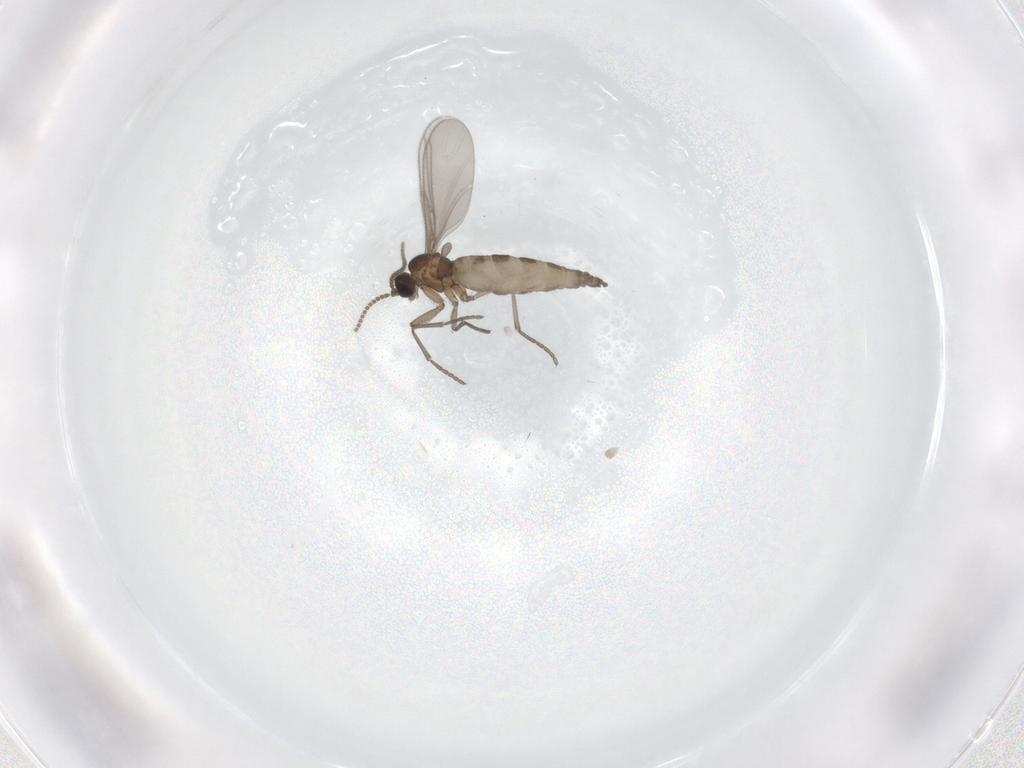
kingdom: Animalia
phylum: Arthropoda
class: Insecta
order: Diptera
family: Sciaridae
